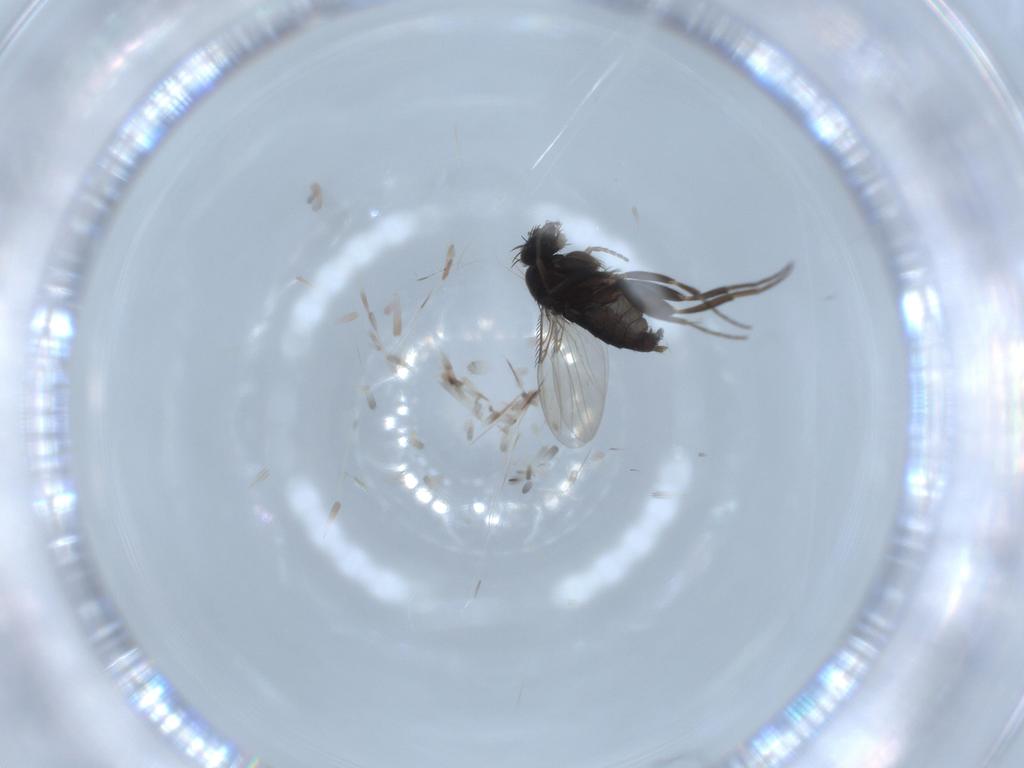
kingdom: Animalia
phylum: Arthropoda
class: Insecta
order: Diptera
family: Phoridae
